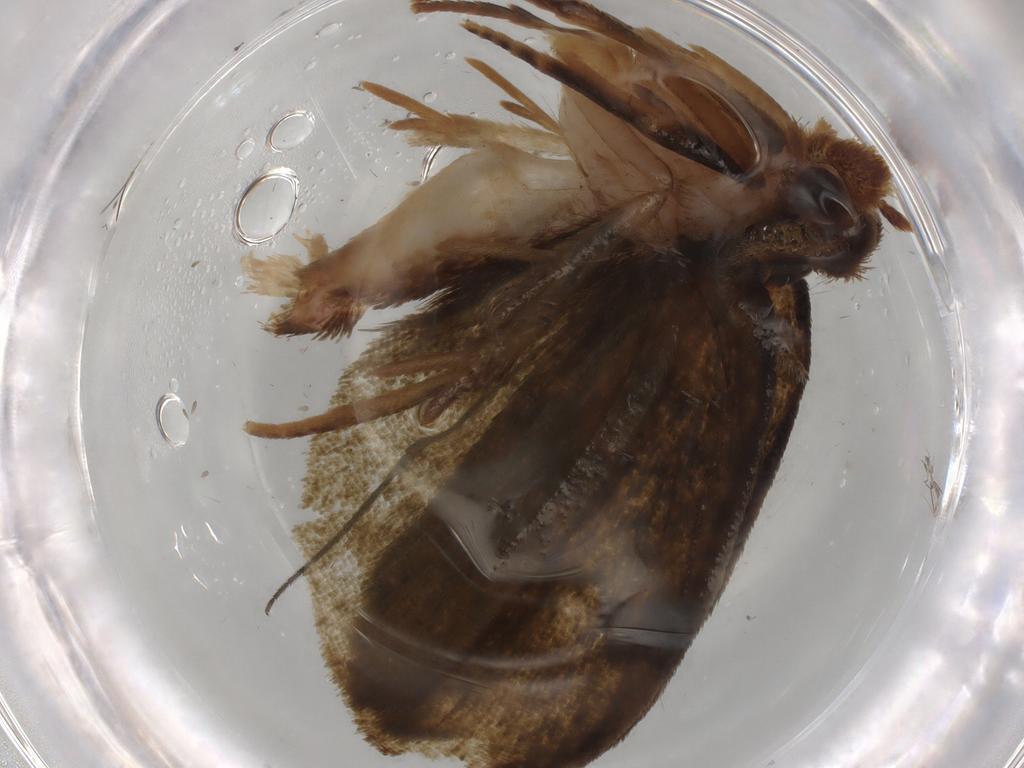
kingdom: Animalia
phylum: Arthropoda
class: Insecta
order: Lepidoptera
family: Geometridae
